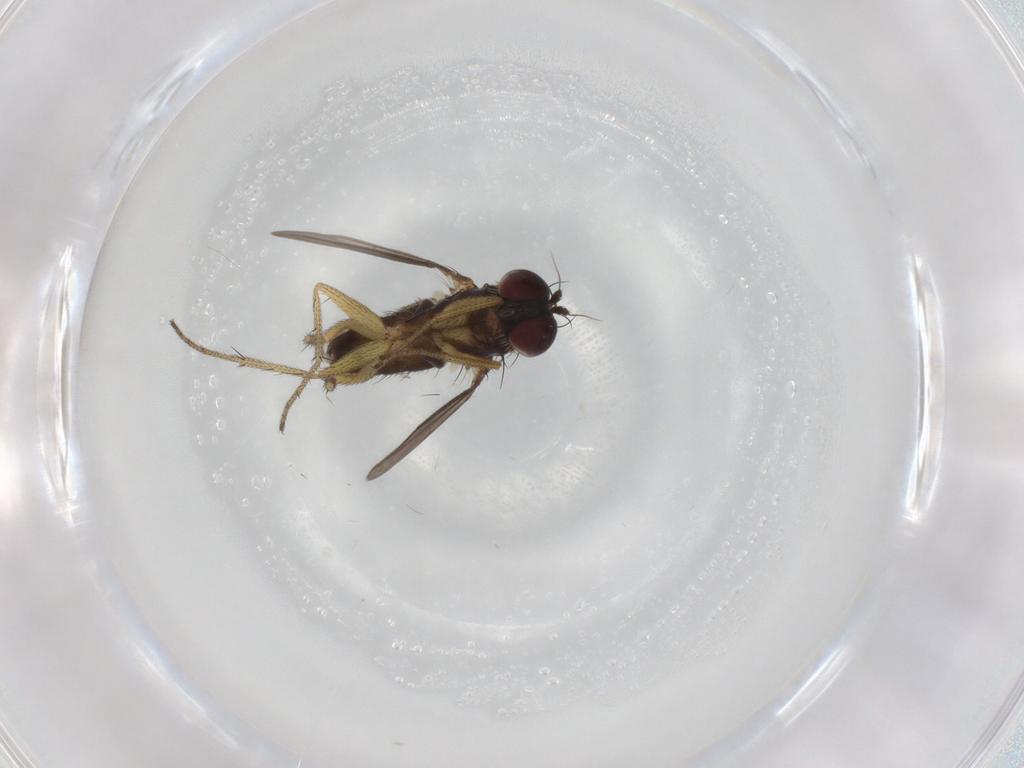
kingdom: Animalia
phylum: Arthropoda
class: Insecta
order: Diptera
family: Dolichopodidae
